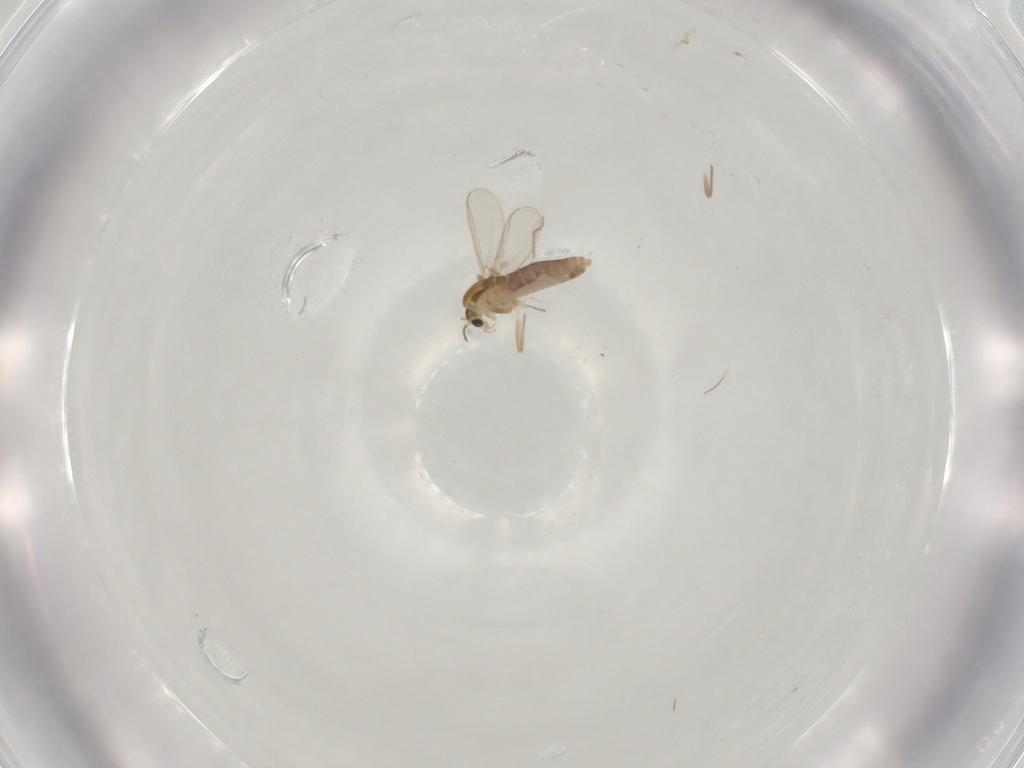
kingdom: Animalia
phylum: Arthropoda
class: Insecta
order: Diptera
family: Chironomidae
